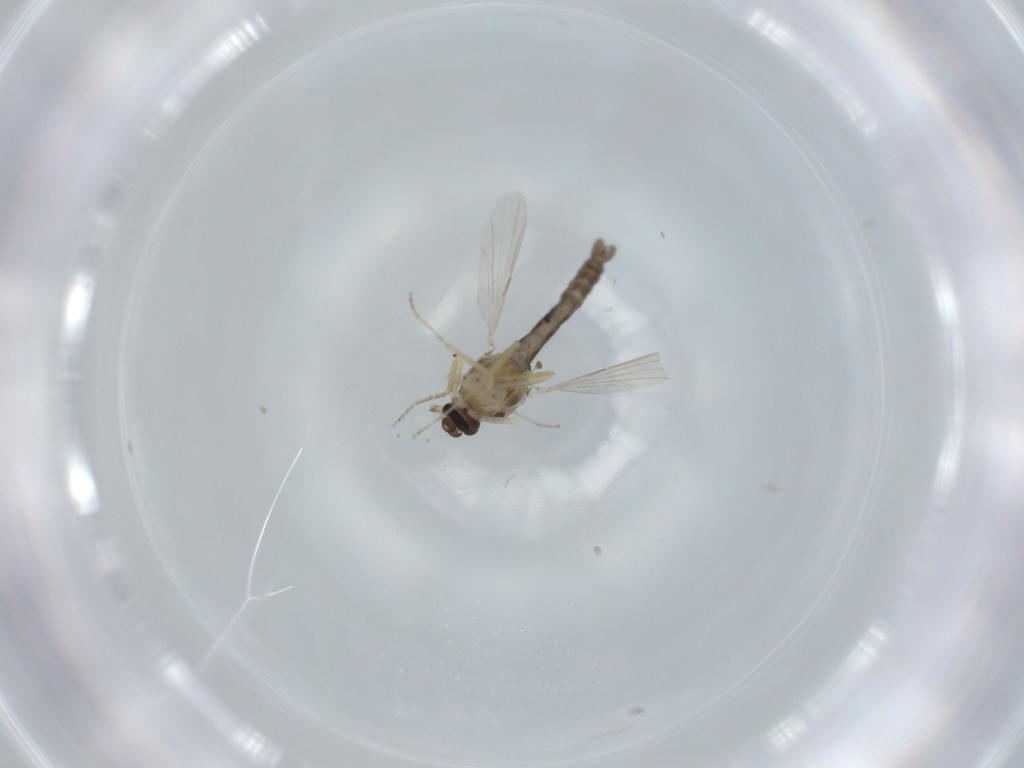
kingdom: Animalia
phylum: Arthropoda
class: Insecta
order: Diptera
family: Ceratopogonidae
